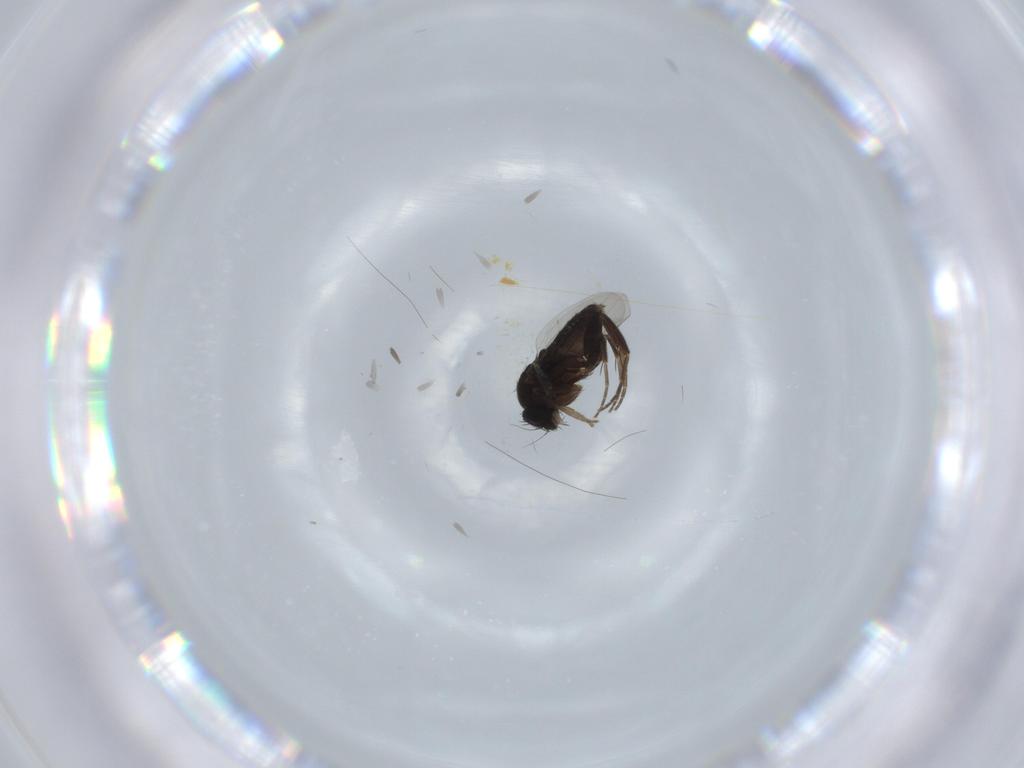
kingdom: Animalia
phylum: Arthropoda
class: Insecta
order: Diptera
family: Phoridae
